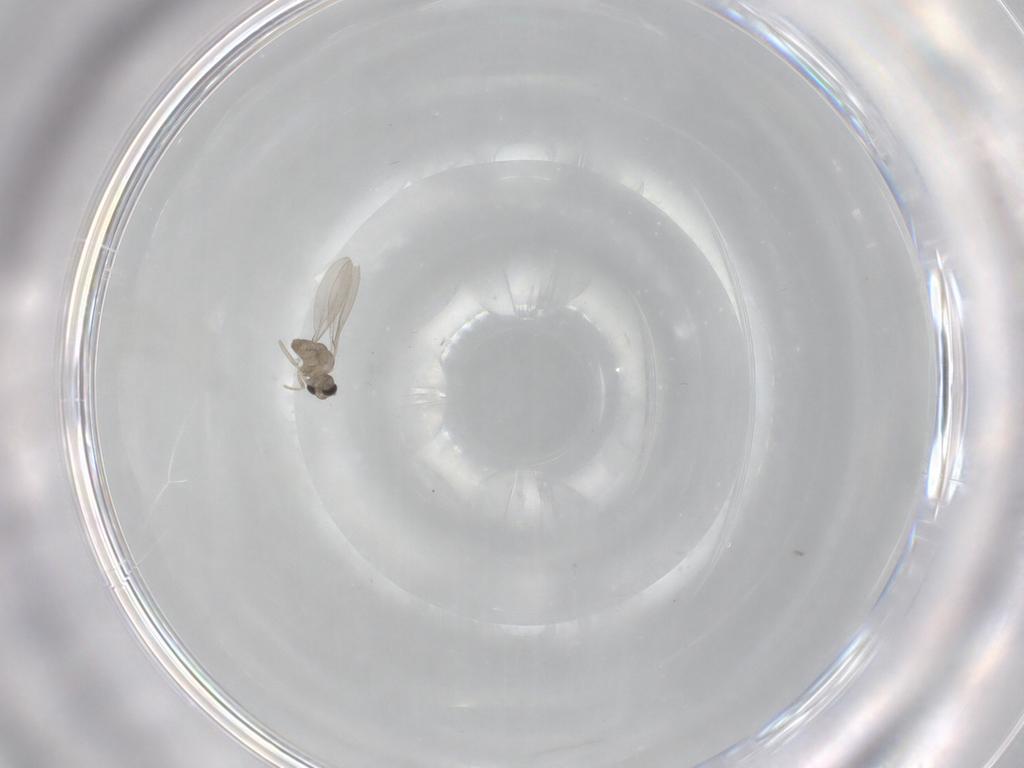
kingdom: Animalia
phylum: Arthropoda
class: Insecta
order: Diptera
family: Cecidomyiidae
